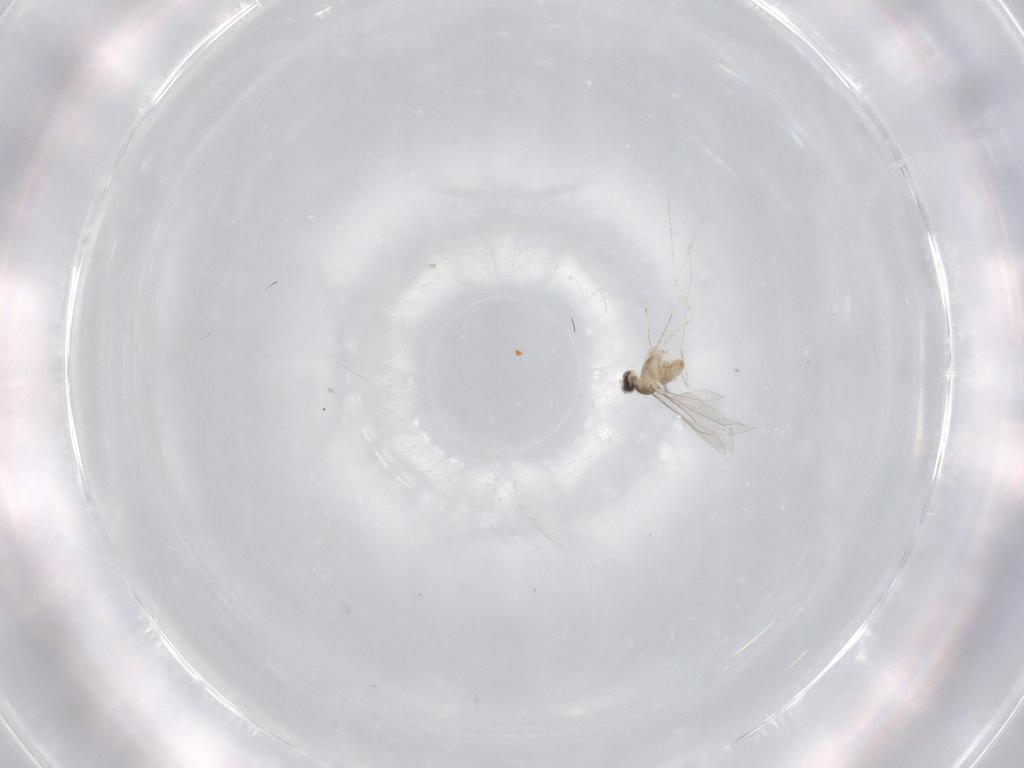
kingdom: Animalia
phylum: Arthropoda
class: Insecta
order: Diptera
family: Cecidomyiidae
